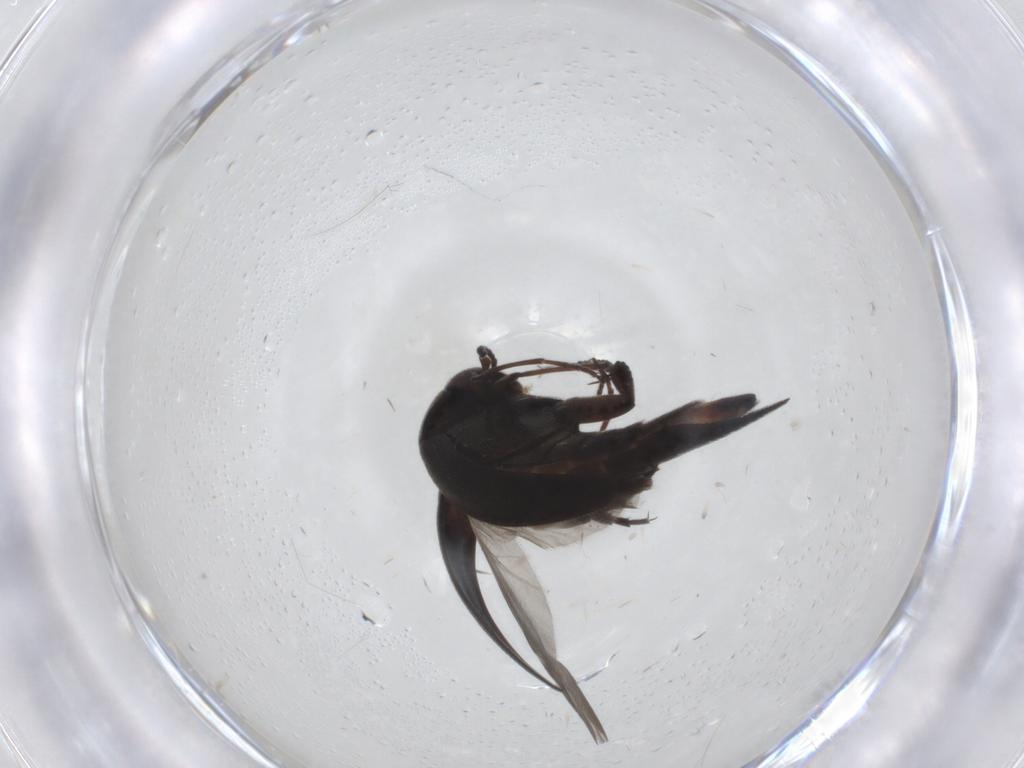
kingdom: Animalia
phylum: Arthropoda
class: Insecta
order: Coleoptera
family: Mordellidae
